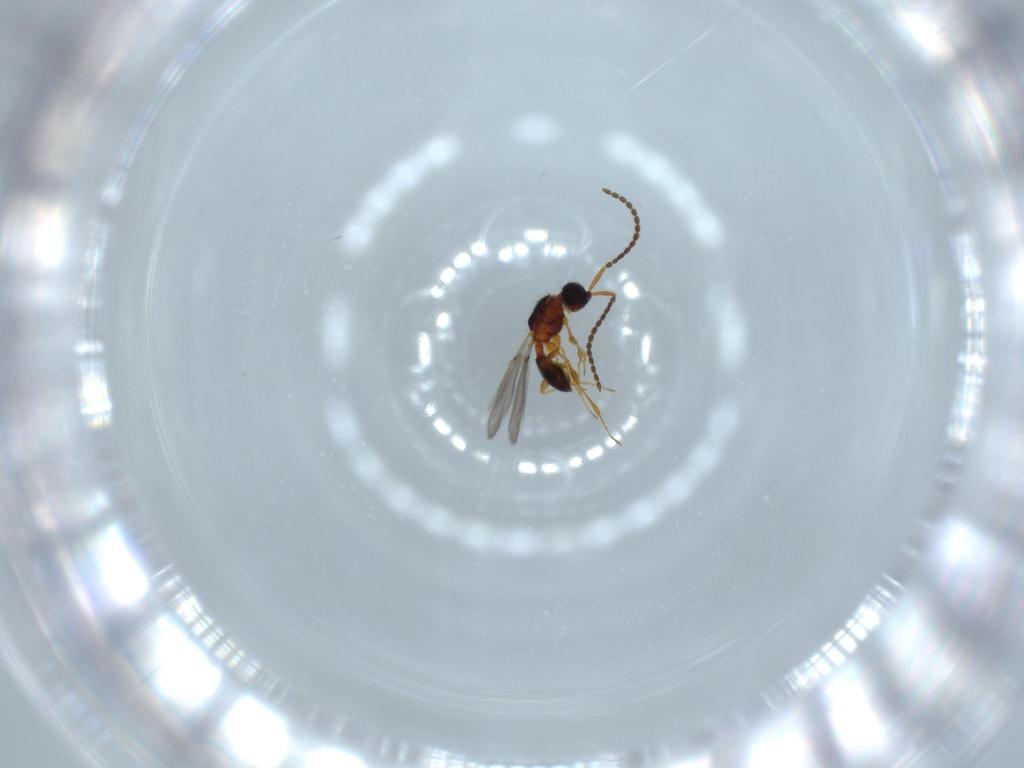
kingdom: Animalia
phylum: Arthropoda
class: Insecta
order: Hymenoptera
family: Diapriidae
